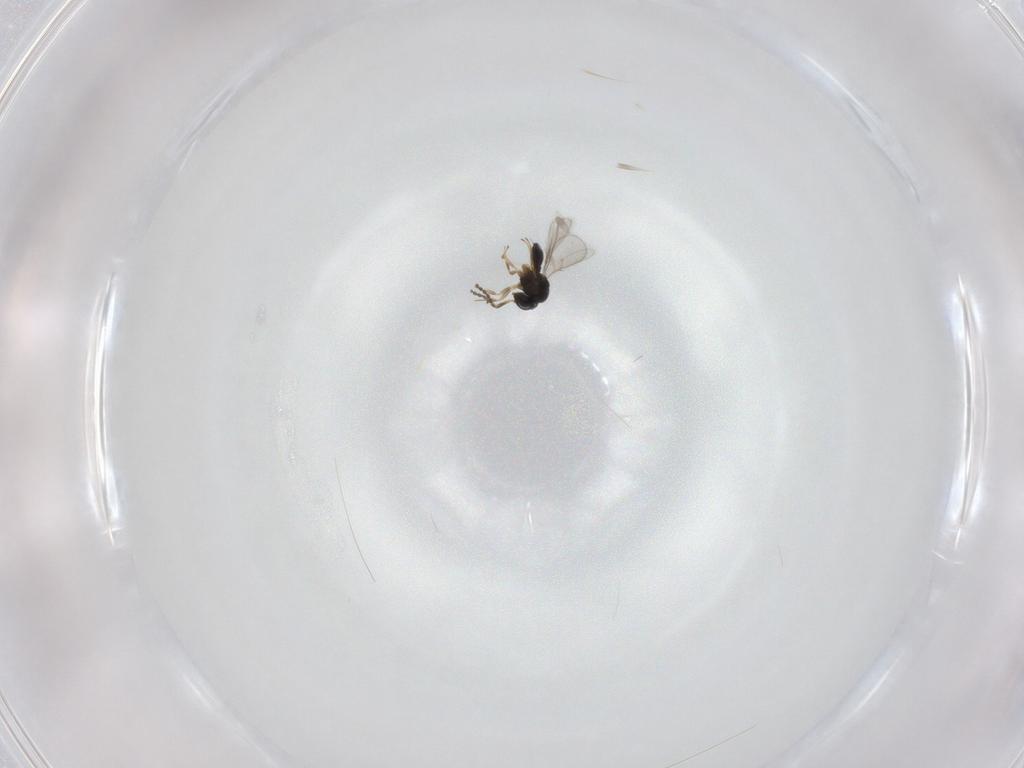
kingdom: Animalia
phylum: Arthropoda
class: Insecta
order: Hymenoptera
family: Scelionidae
